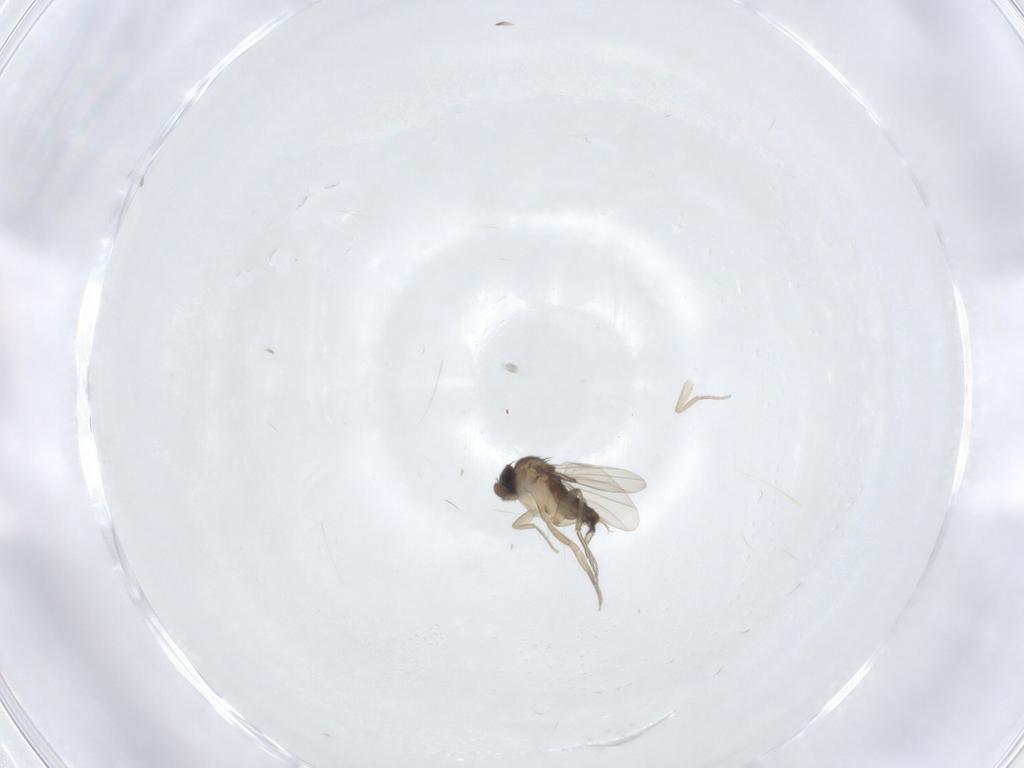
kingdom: Animalia
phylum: Arthropoda
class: Insecta
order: Diptera
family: Phoridae
